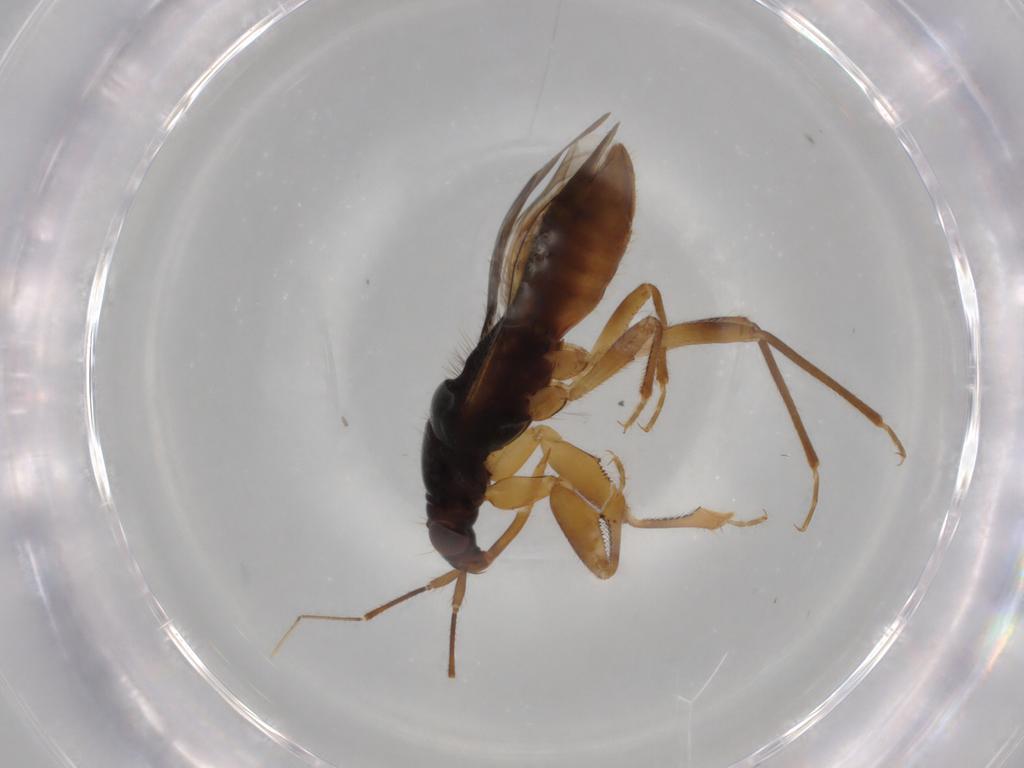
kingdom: Animalia
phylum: Arthropoda
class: Insecta
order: Hemiptera
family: Nabidae
